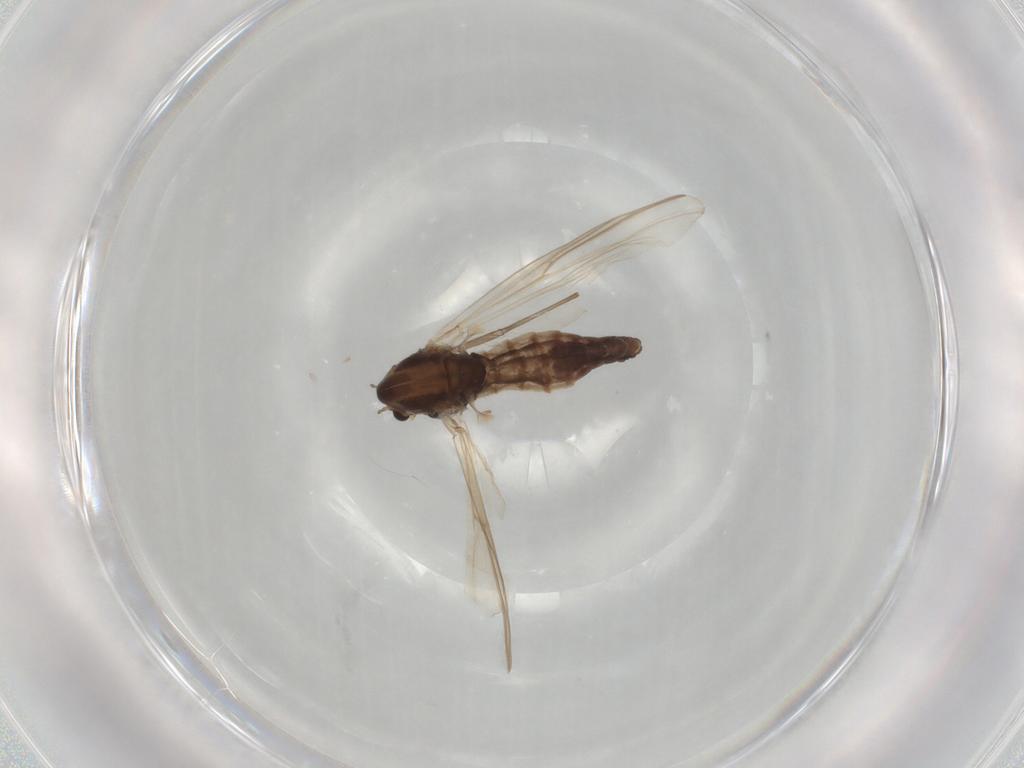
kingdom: Animalia
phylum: Arthropoda
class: Insecta
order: Diptera
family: Chironomidae
